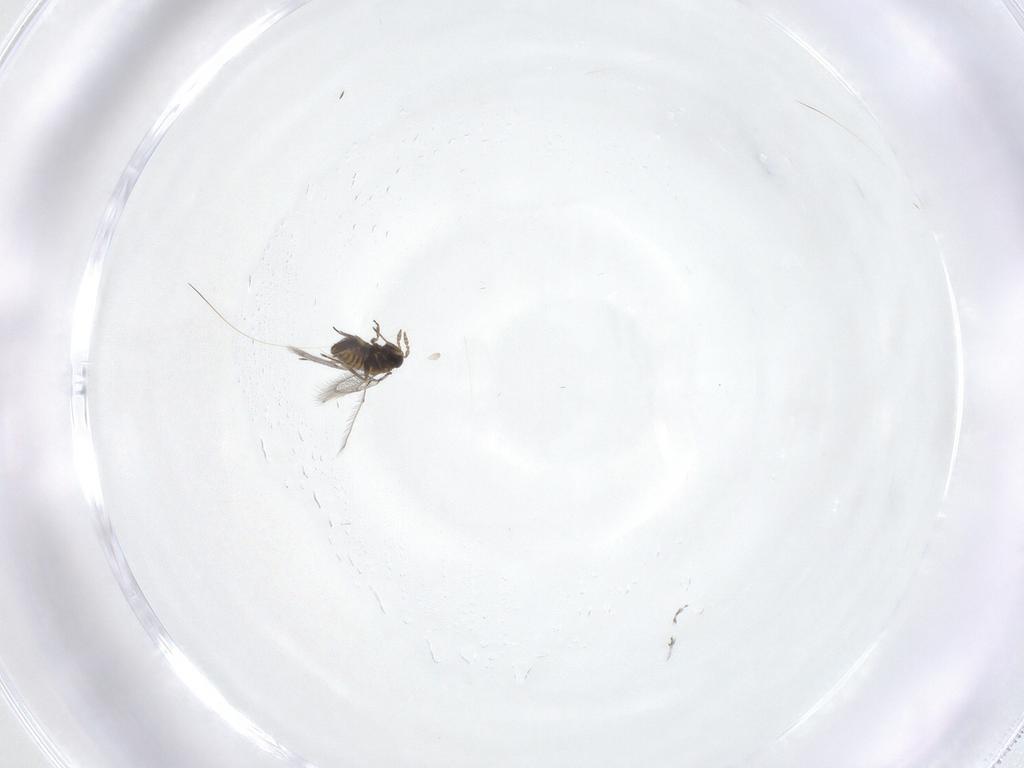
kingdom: Animalia
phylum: Arthropoda
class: Insecta
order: Hymenoptera
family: Trichogrammatidae
